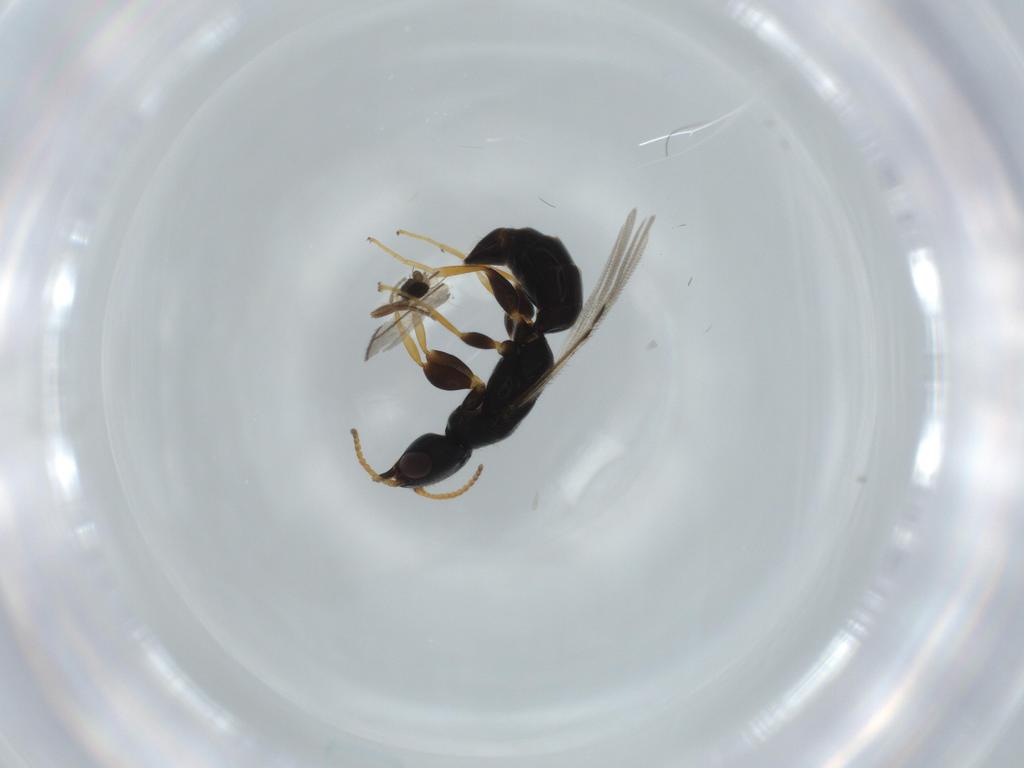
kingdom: Animalia
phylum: Arthropoda
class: Insecta
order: Hymenoptera
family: Bethylidae
